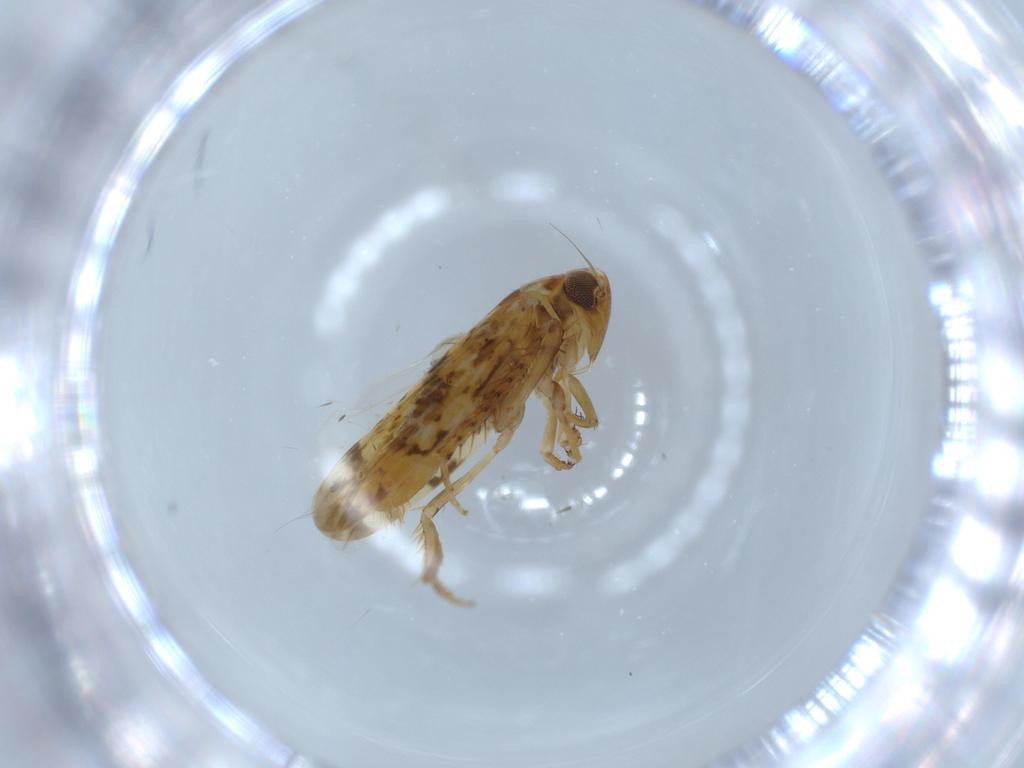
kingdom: Animalia
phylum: Arthropoda
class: Insecta
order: Hemiptera
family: Cicadellidae
